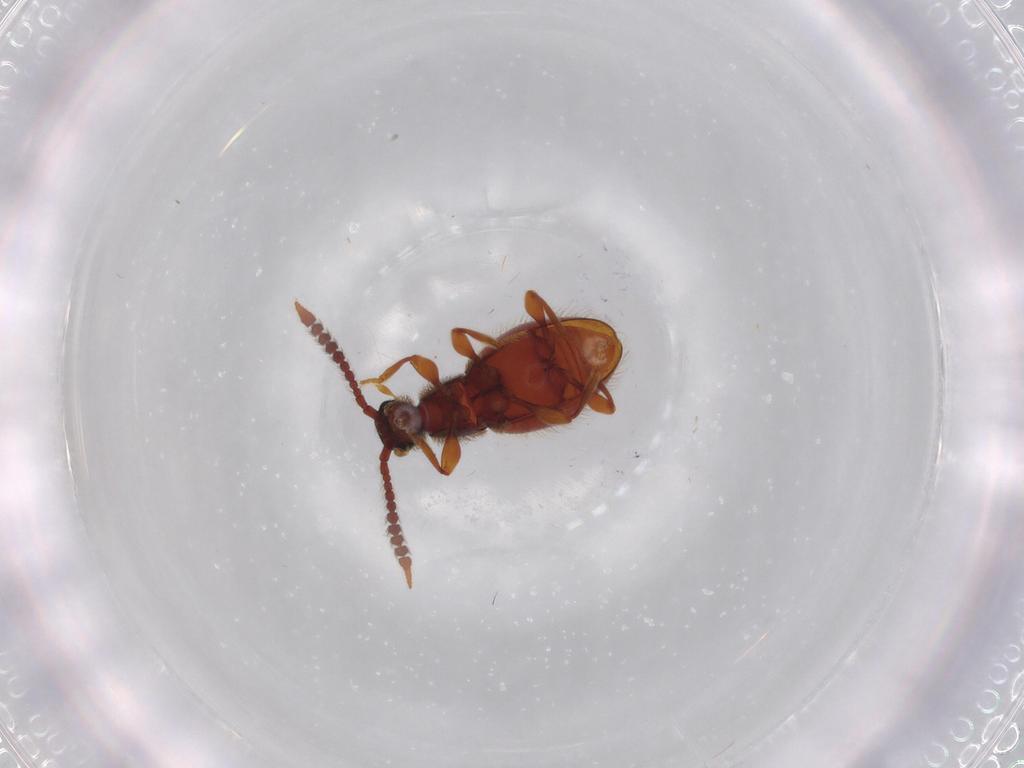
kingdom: Animalia
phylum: Arthropoda
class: Insecta
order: Coleoptera
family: Staphylinidae
